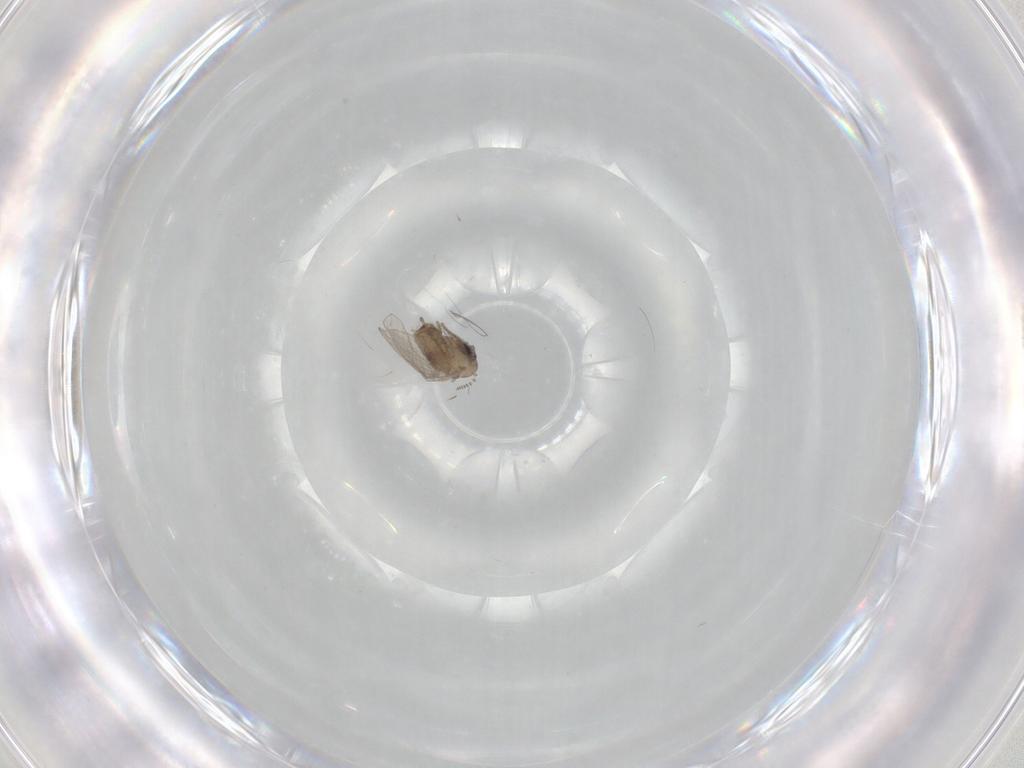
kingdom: Animalia
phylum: Arthropoda
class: Insecta
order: Diptera
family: Psychodidae
